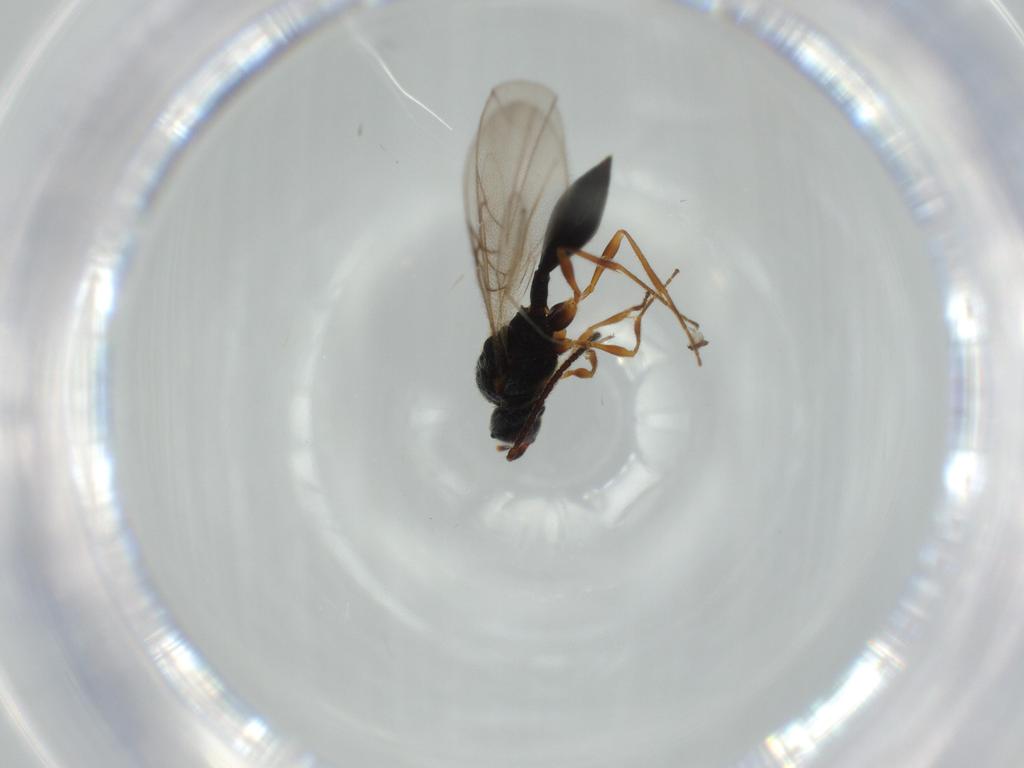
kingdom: Animalia
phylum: Arthropoda
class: Insecta
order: Hymenoptera
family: Diapriidae
